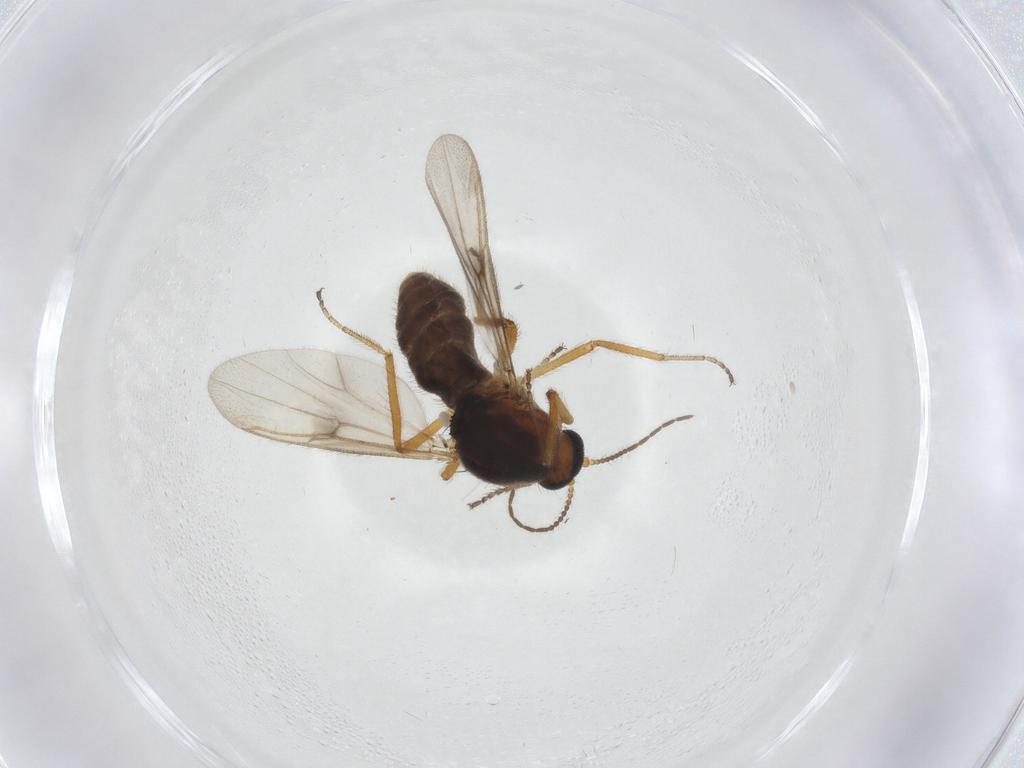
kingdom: Animalia
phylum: Arthropoda
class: Insecta
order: Diptera
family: Ceratopogonidae
